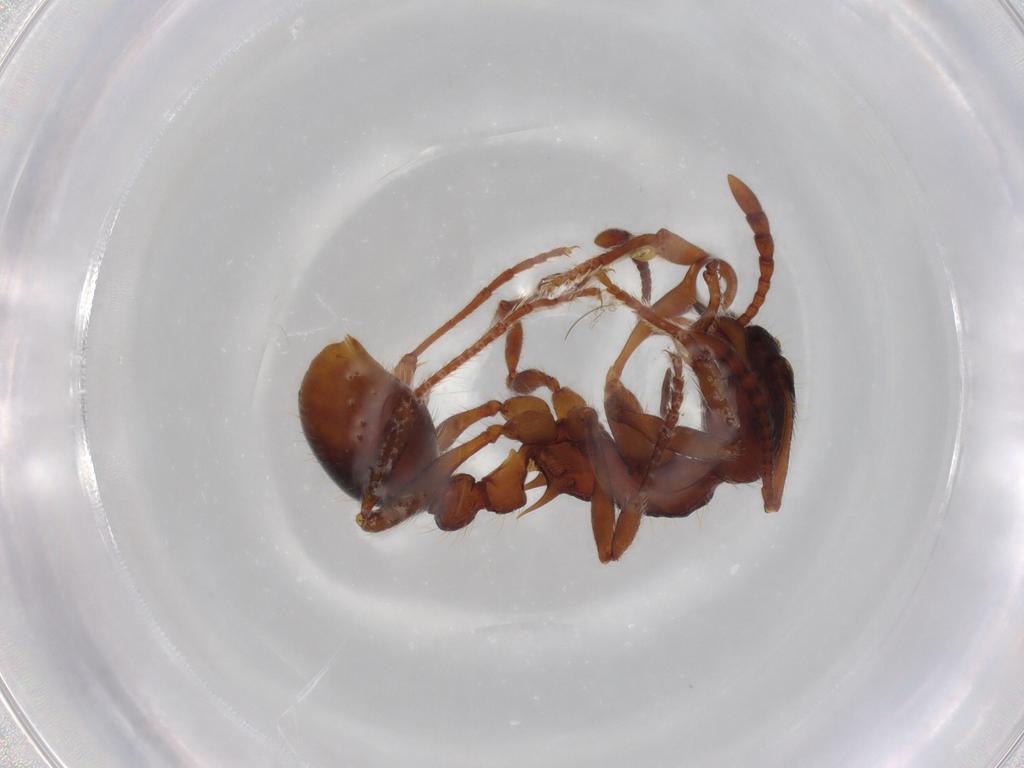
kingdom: Animalia
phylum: Arthropoda
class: Insecta
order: Hymenoptera
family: Formicidae
